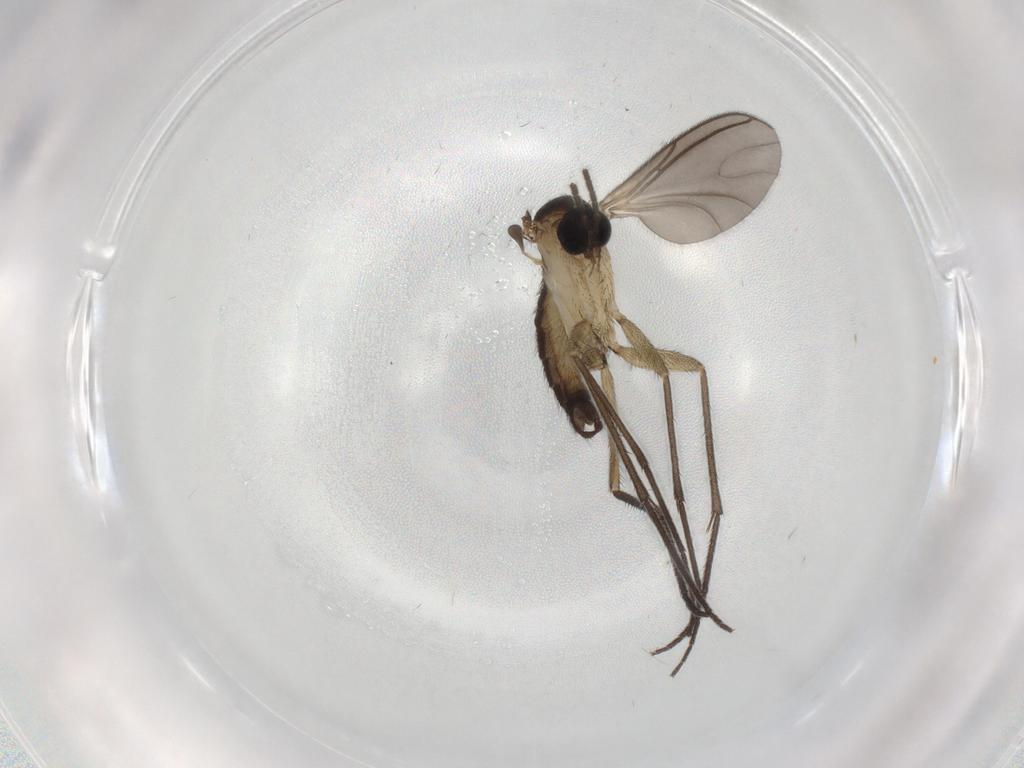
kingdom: Animalia
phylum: Arthropoda
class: Insecta
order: Diptera
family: Sciaridae
